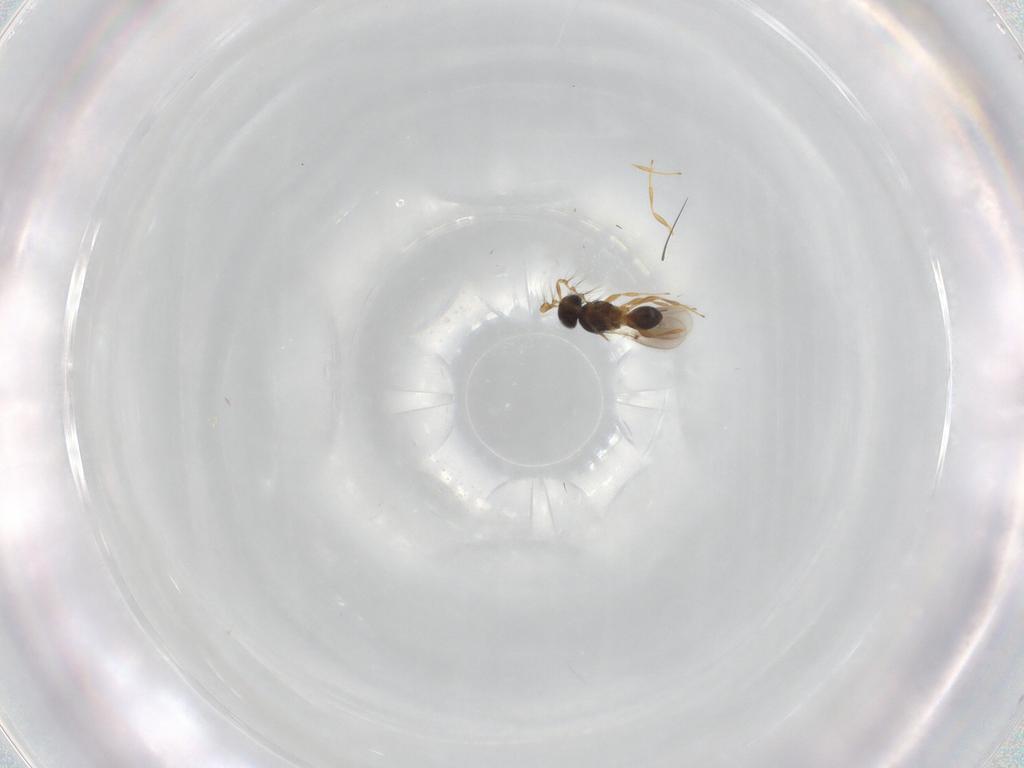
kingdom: Animalia
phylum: Arthropoda
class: Insecta
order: Hymenoptera
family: Platygastridae
